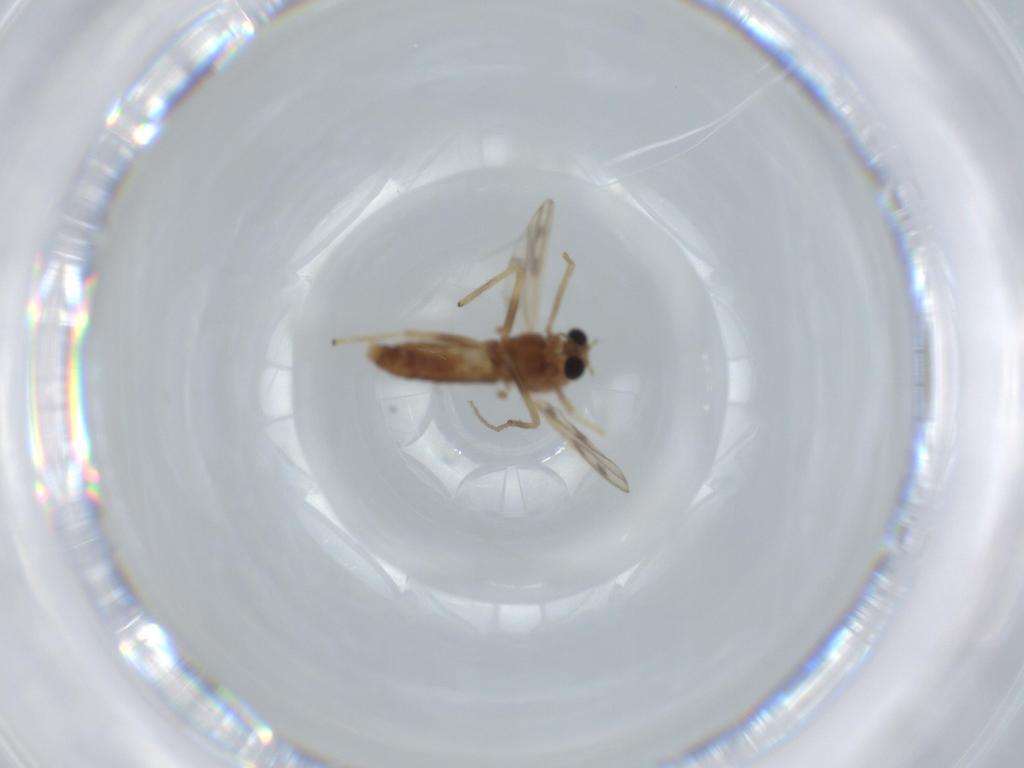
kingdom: Animalia
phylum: Arthropoda
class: Insecta
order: Diptera
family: Chironomidae
